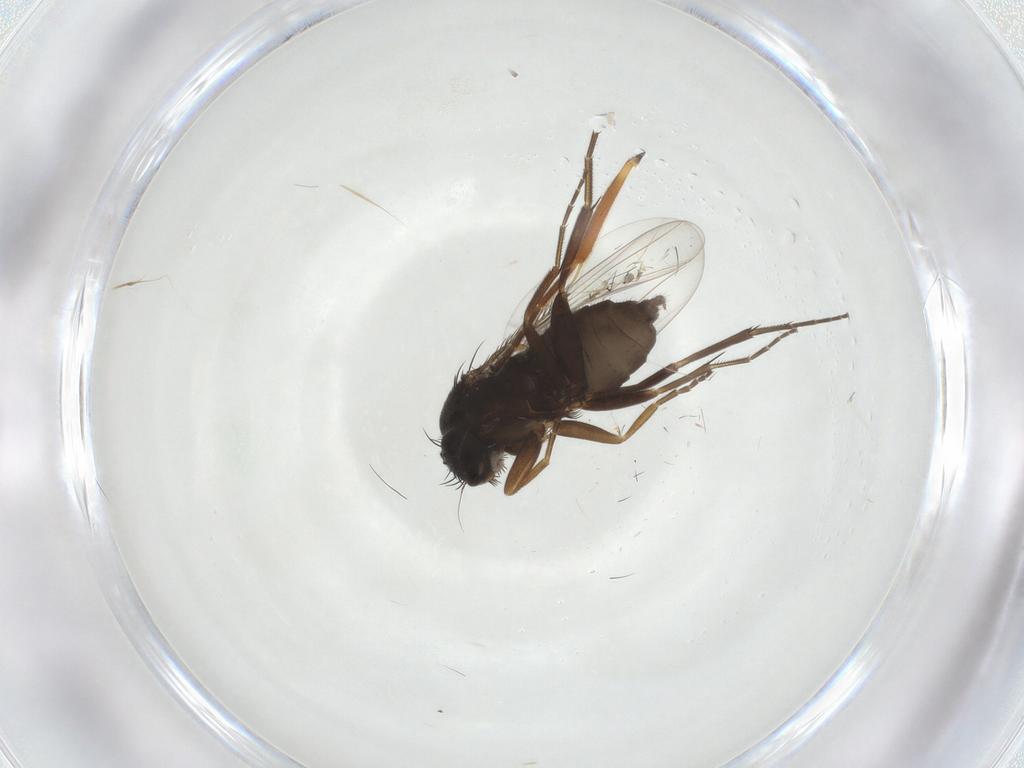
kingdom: Animalia
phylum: Arthropoda
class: Insecta
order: Diptera
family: Phoridae
